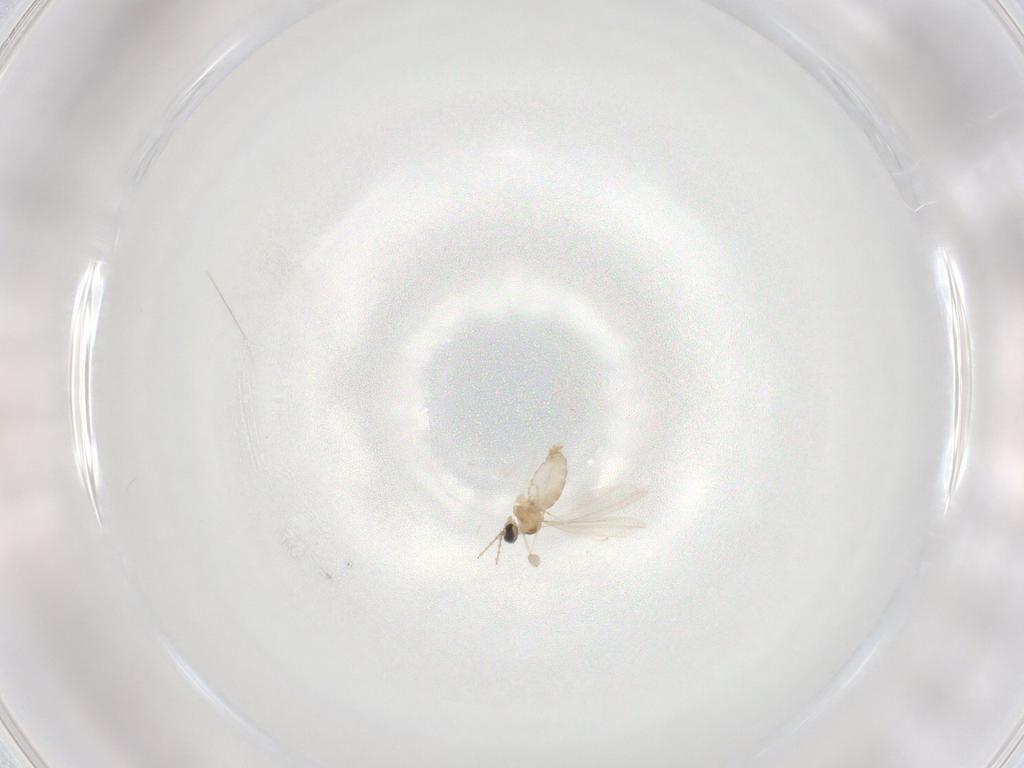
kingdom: Animalia
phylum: Arthropoda
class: Insecta
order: Diptera
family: Cecidomyiidae
